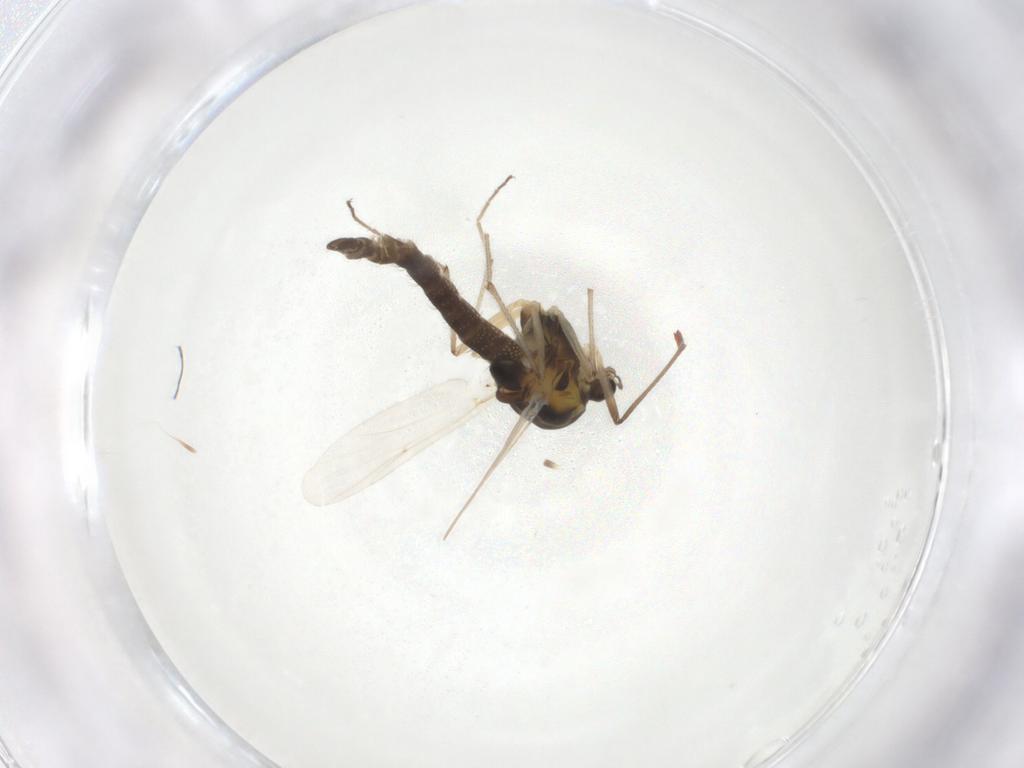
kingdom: Animalia
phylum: Arthropoda
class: Insecta
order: Diptera
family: Chironomidae
